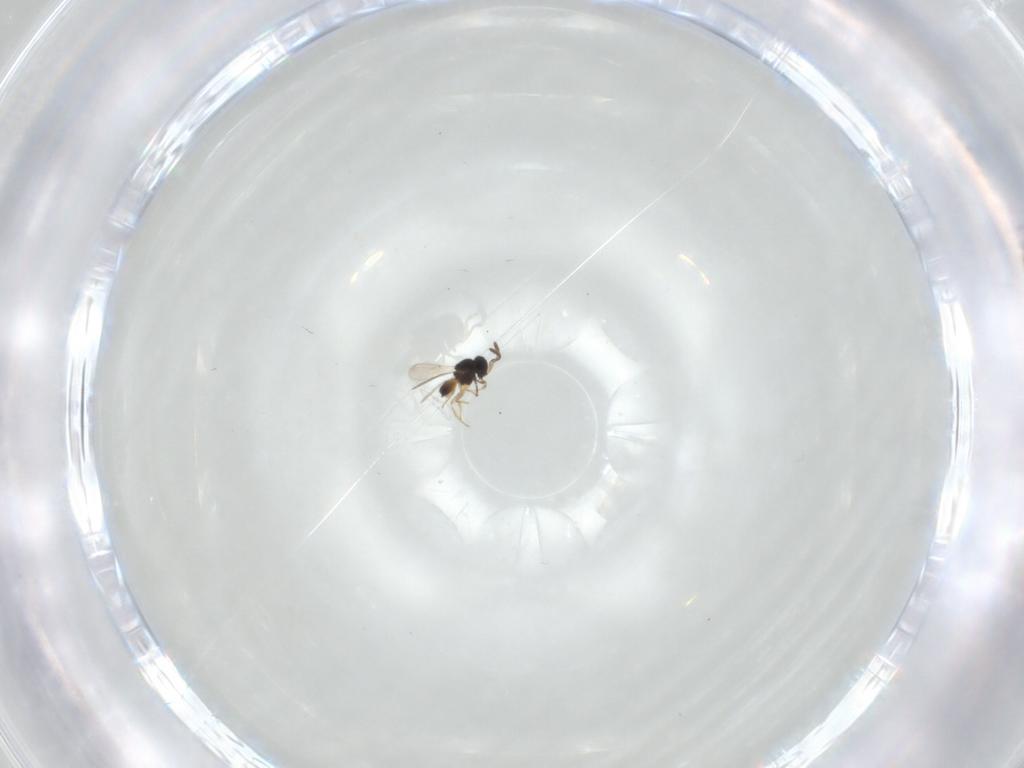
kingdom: Animalia
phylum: Arthropoda
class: Insecta
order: Hymenoptera
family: Scelionidae
